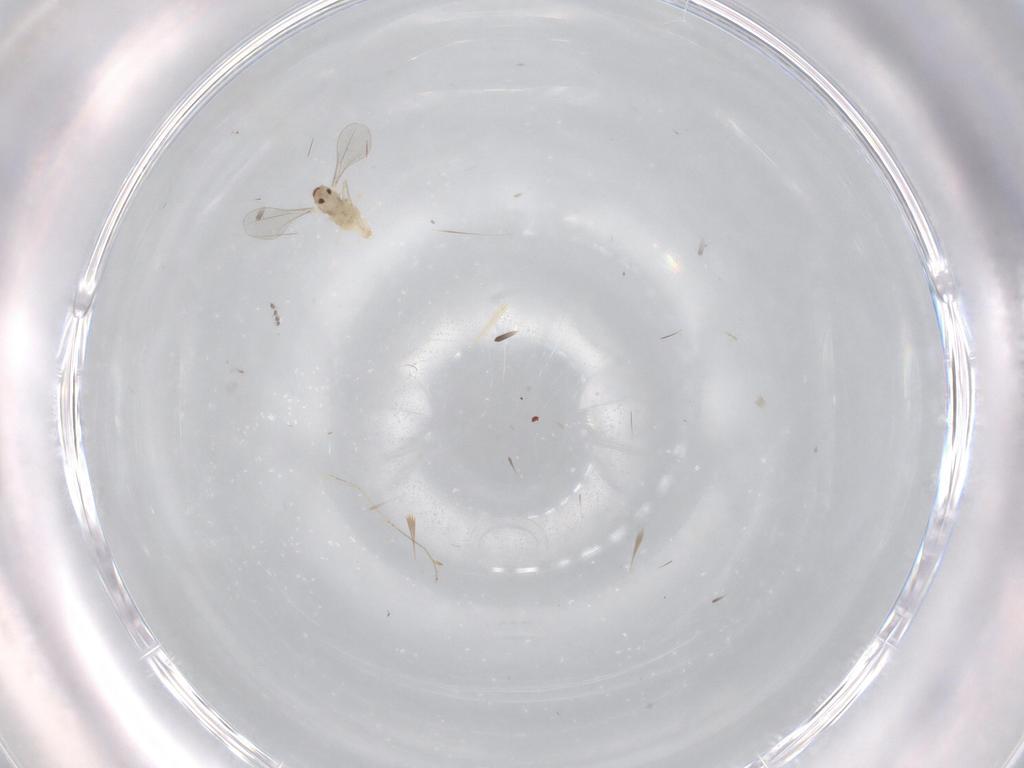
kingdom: Animalia
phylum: Arthropoda
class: Insecta
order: Diptera
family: Cecidomyiidae
